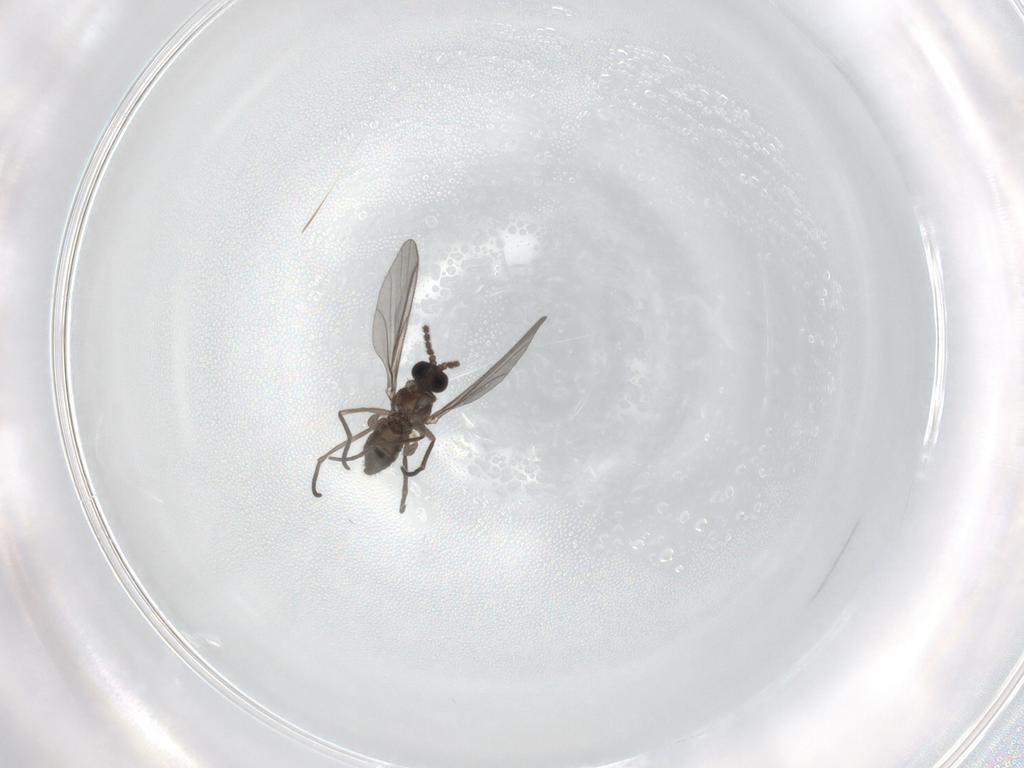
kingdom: Animalia
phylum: Arthropoda
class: Insecta
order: Diptera
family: Cecidomyiidae
